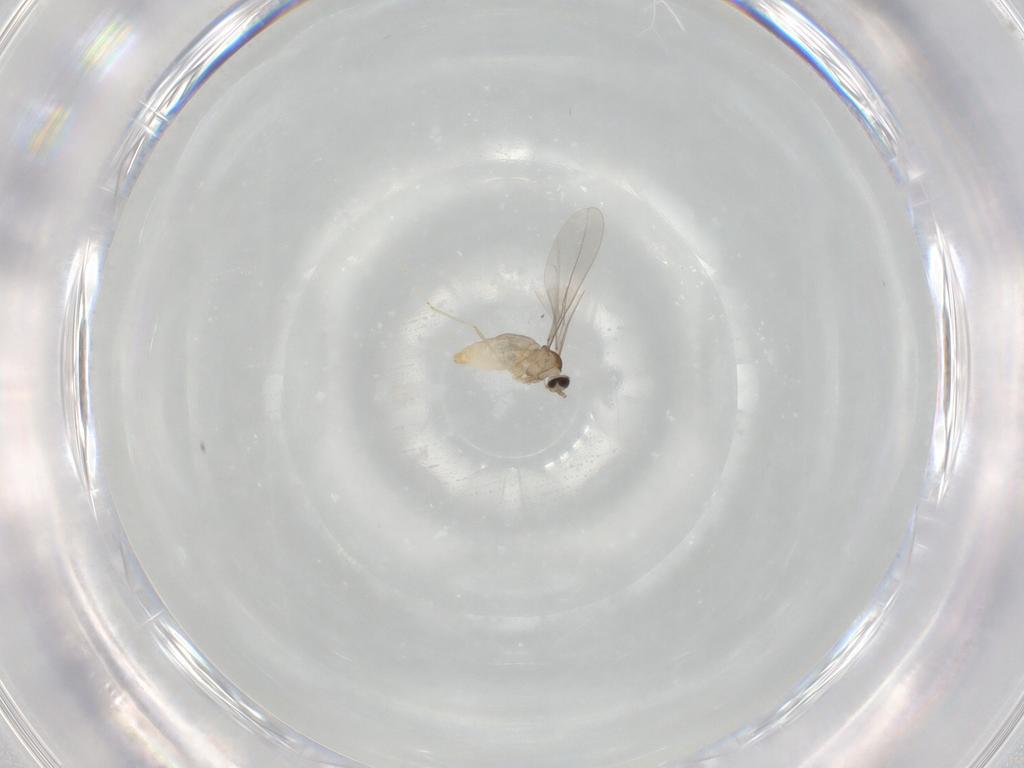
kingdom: Animalia
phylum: Arthropoda
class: Insecta
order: Diptera
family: Cecidomyiidae
